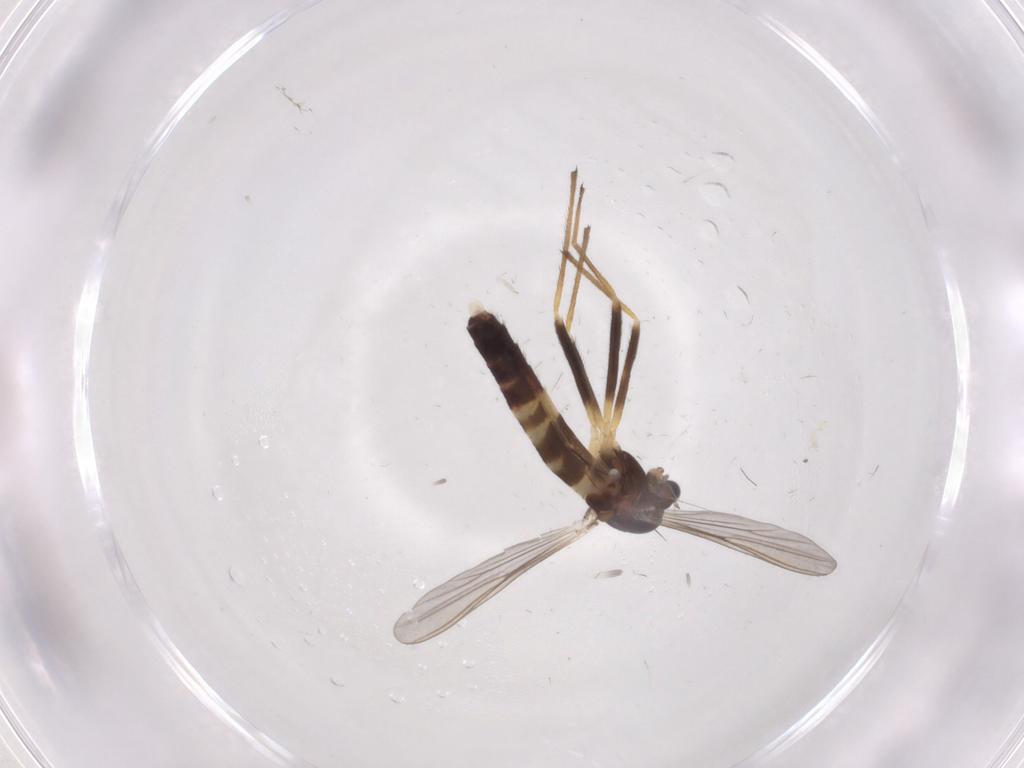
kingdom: Animalia
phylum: Arthropoda
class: Insecta
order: Diptera
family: Chironomidae
